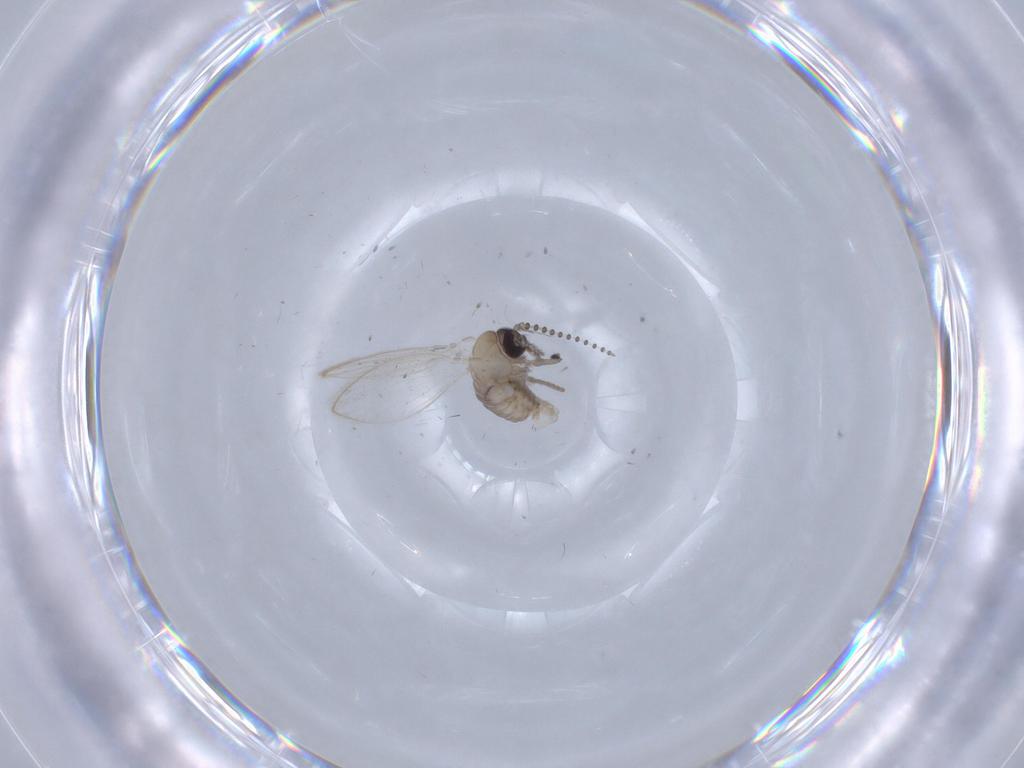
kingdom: Animalia
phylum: Arthropoda
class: Insecta
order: Diptera
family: Psychodidae
